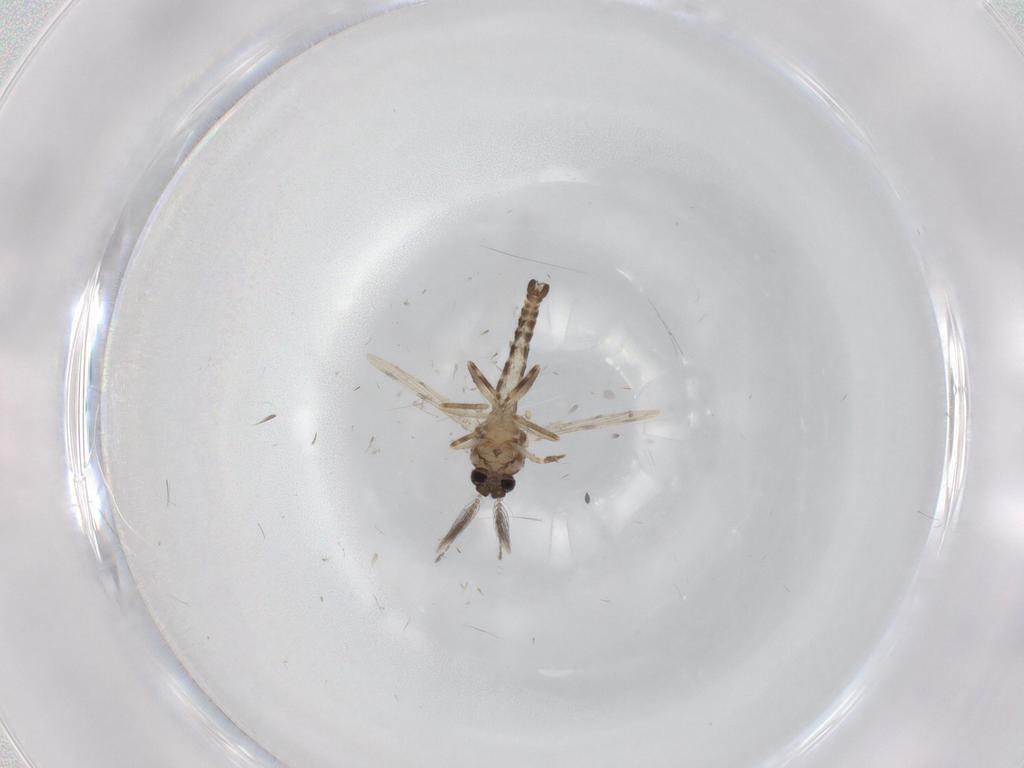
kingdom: Animalia
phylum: Arthropoda
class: Insecta
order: Diptera
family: Ceratopogonidae
